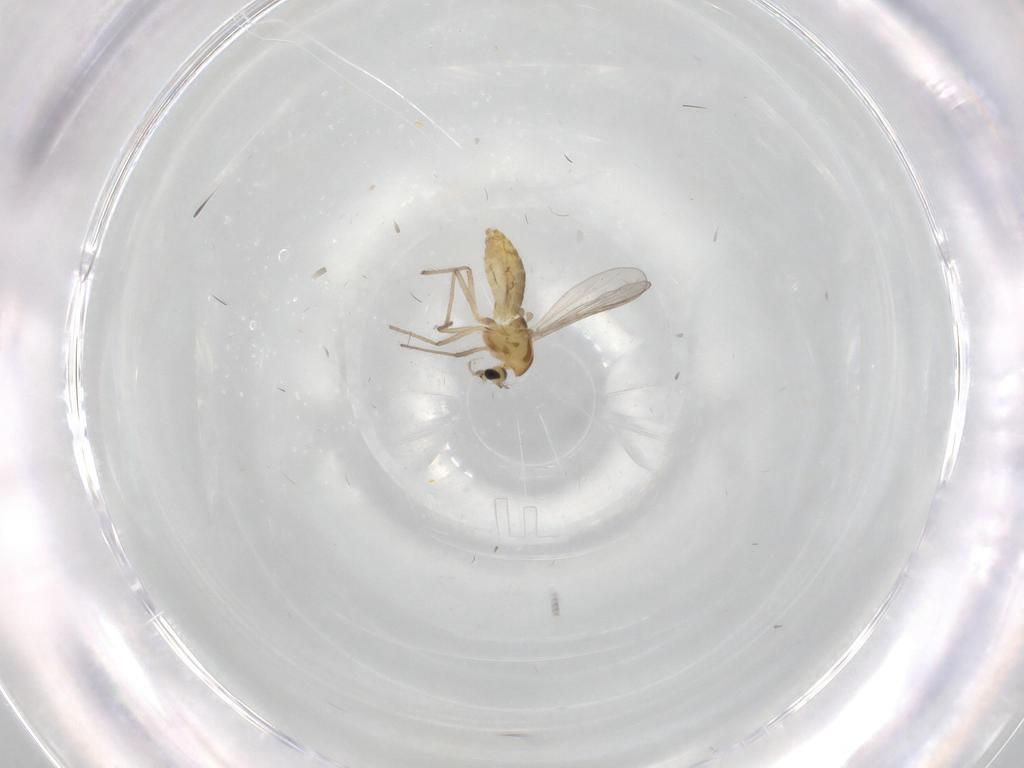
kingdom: Animalia
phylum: Arthropoda
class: Insecta
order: Diptera
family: Chironomidae
